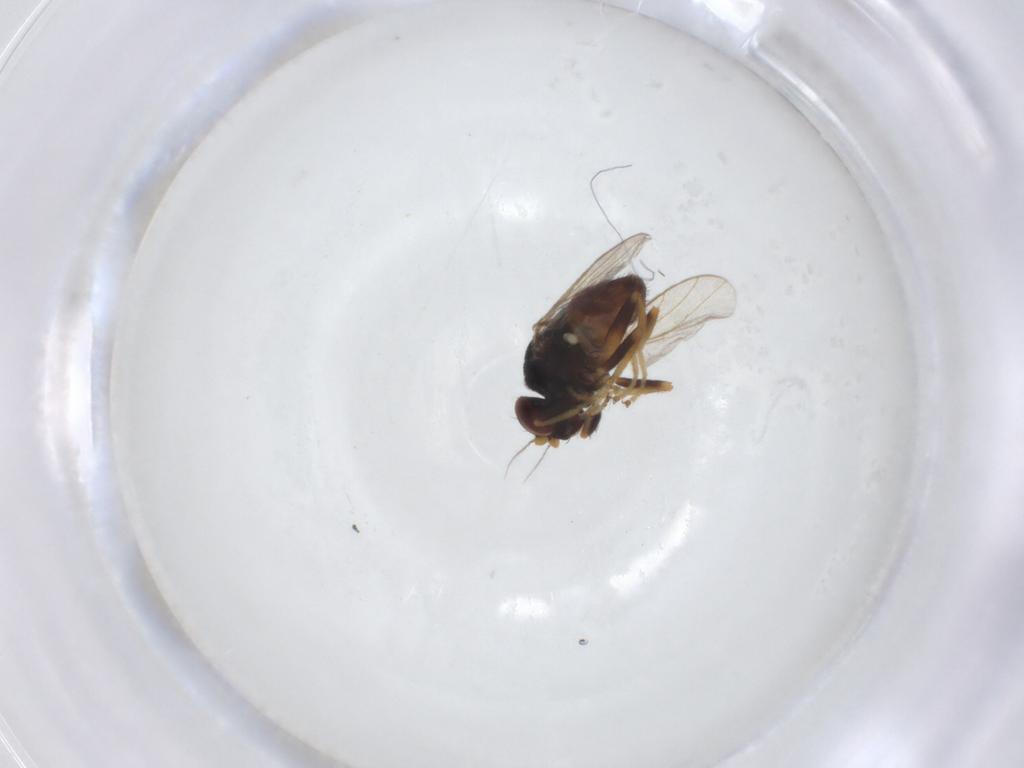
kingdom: Animalia
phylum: Arthropoda
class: Insecta
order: Diptera
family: Chloropidae
